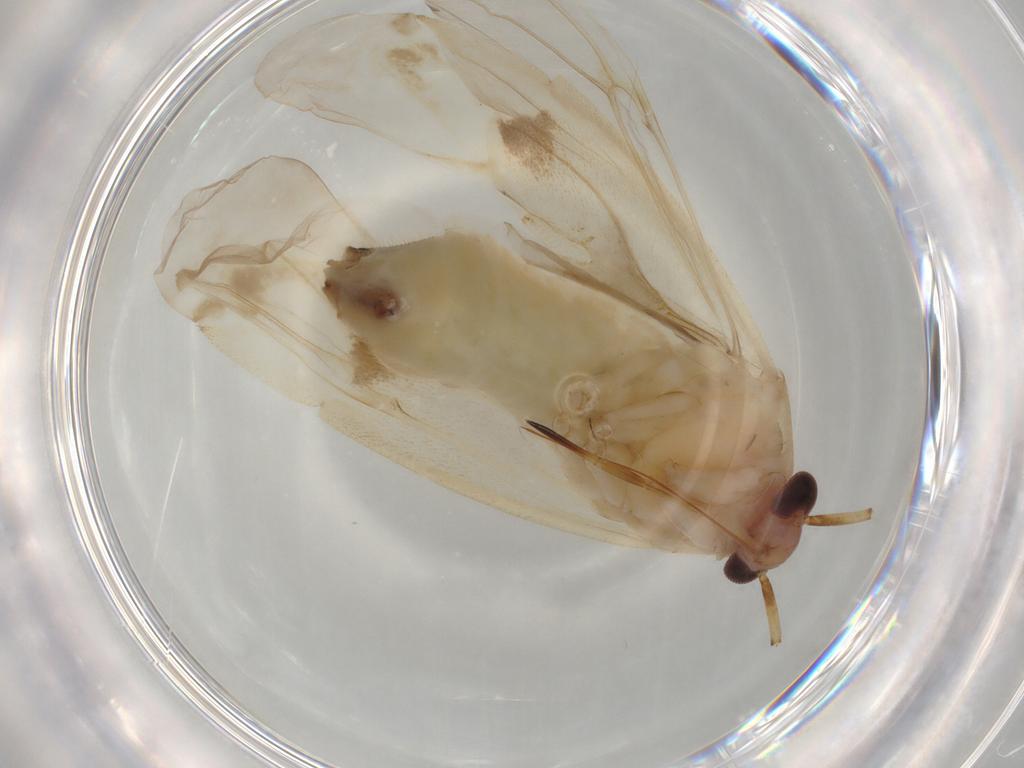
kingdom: Animalia
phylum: Arthropoda
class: Insecta
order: Hemiptera
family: Miridae
